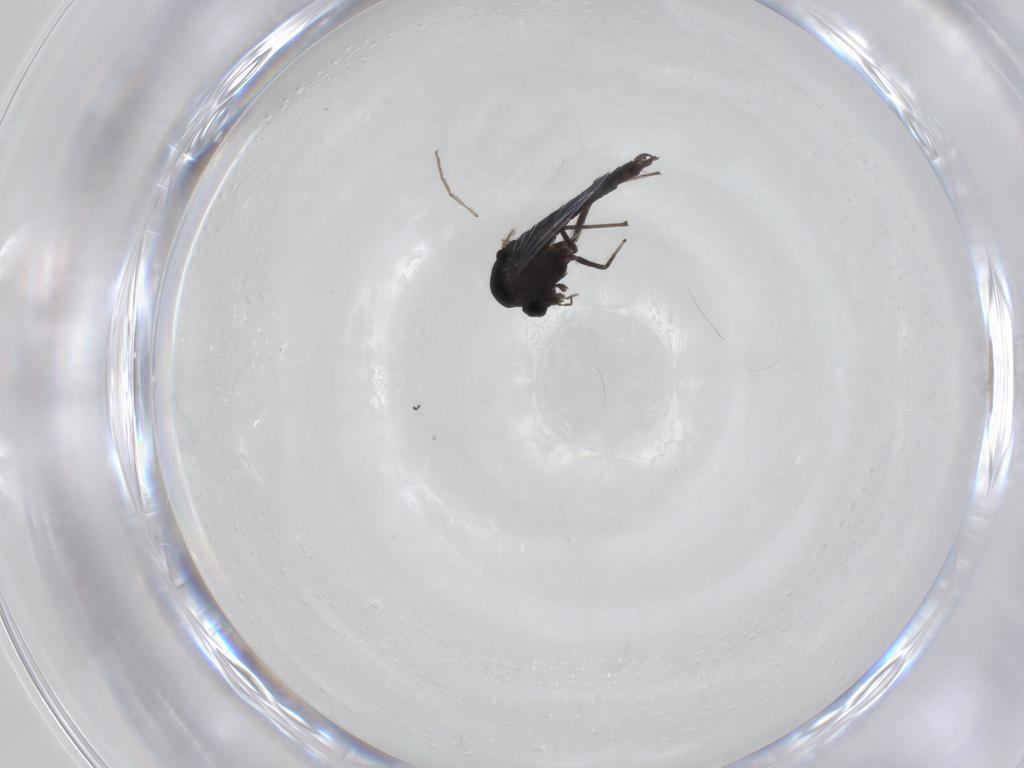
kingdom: Animalia
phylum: Arthropoda
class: Insecta
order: Diptera
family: Chironomidae
